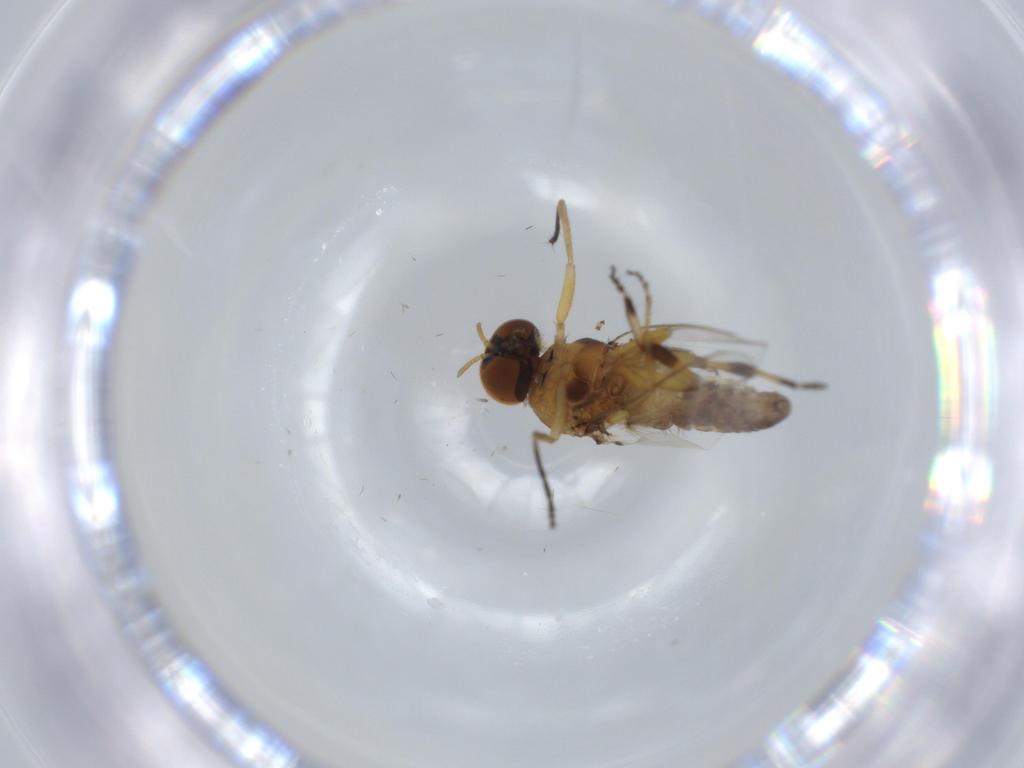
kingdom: Animalia
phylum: Arthropoda
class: Insecta
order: Diptera
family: Cecidomyiidae
